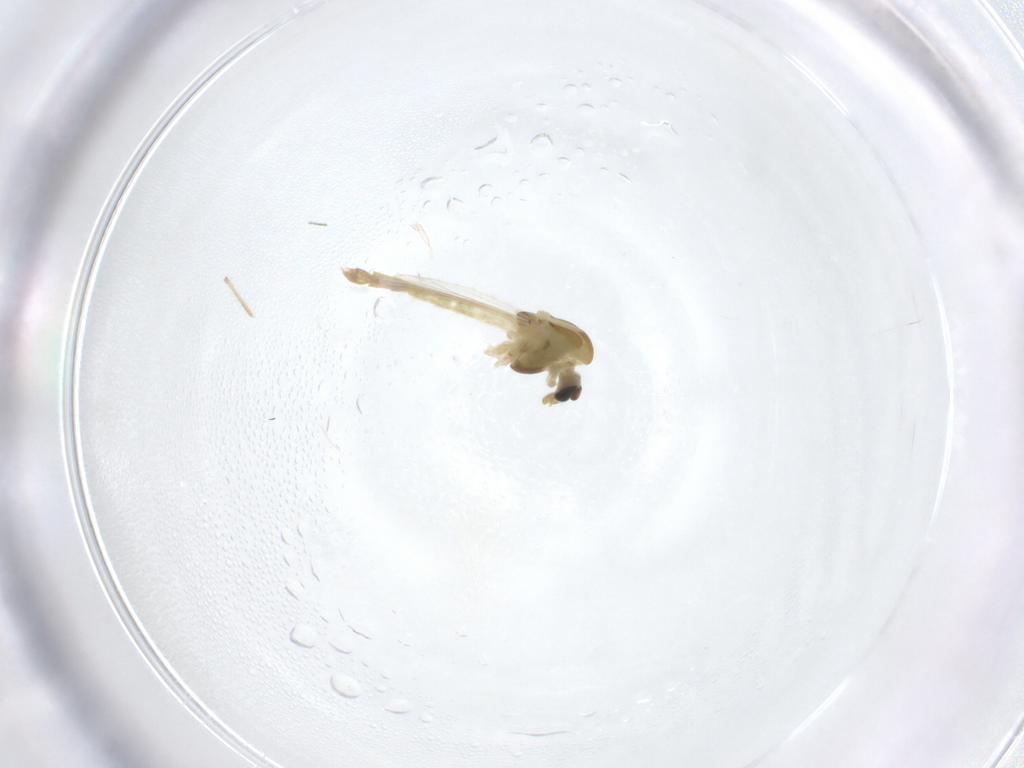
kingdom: Animalia
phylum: Arthropoda
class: Insecta
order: Diptera
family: Chironomidae
